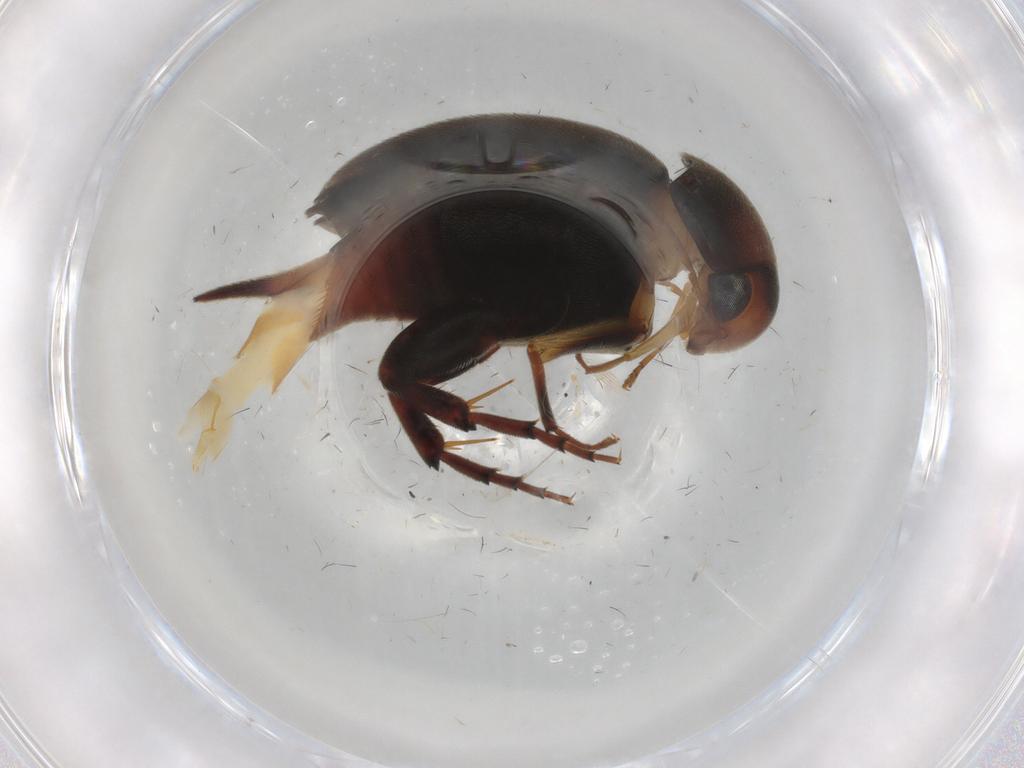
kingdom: Animalia
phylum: Arthropoda
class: Insecta
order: Coleoptera
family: Mordellidae
